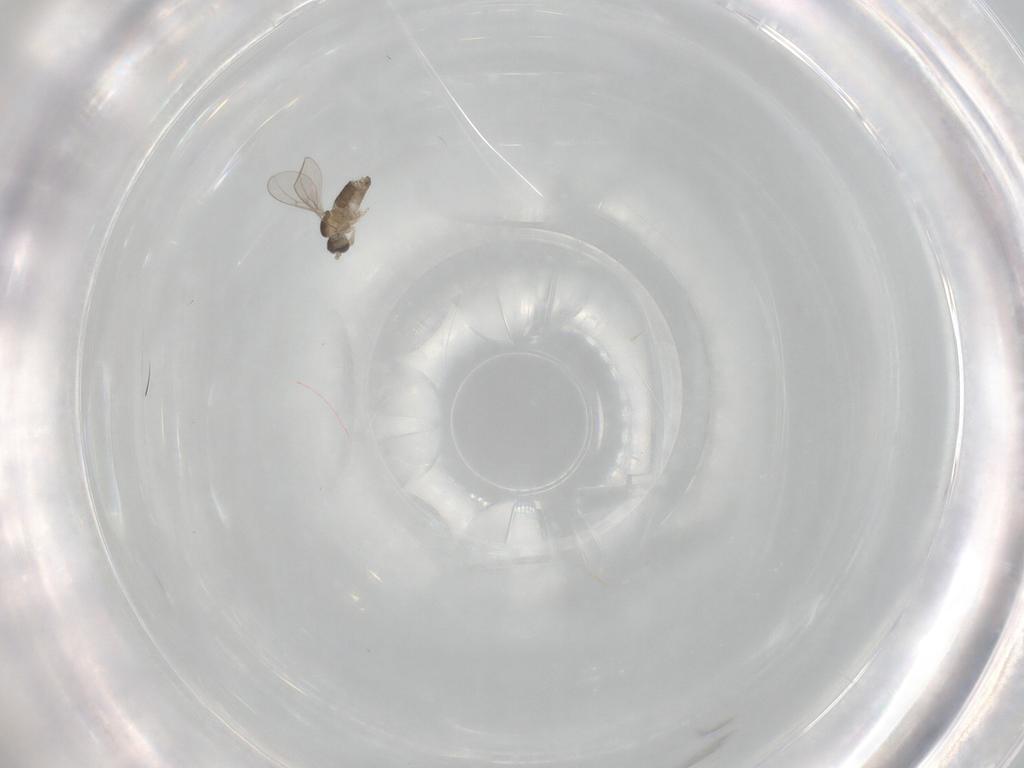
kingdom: Animalia
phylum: Arthropoda
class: Insecta
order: Diptera
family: Cecidomyiidae
